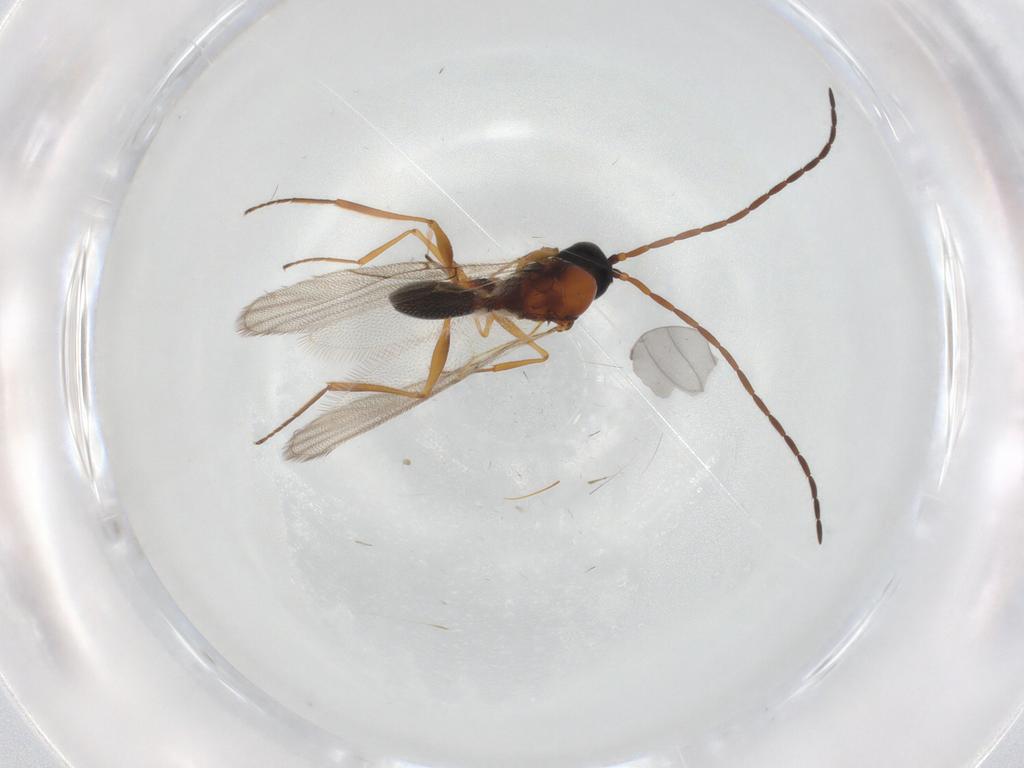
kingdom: Animalia
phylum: Arthropoda
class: Insecta
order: Hymenoptera
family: Figitidae
